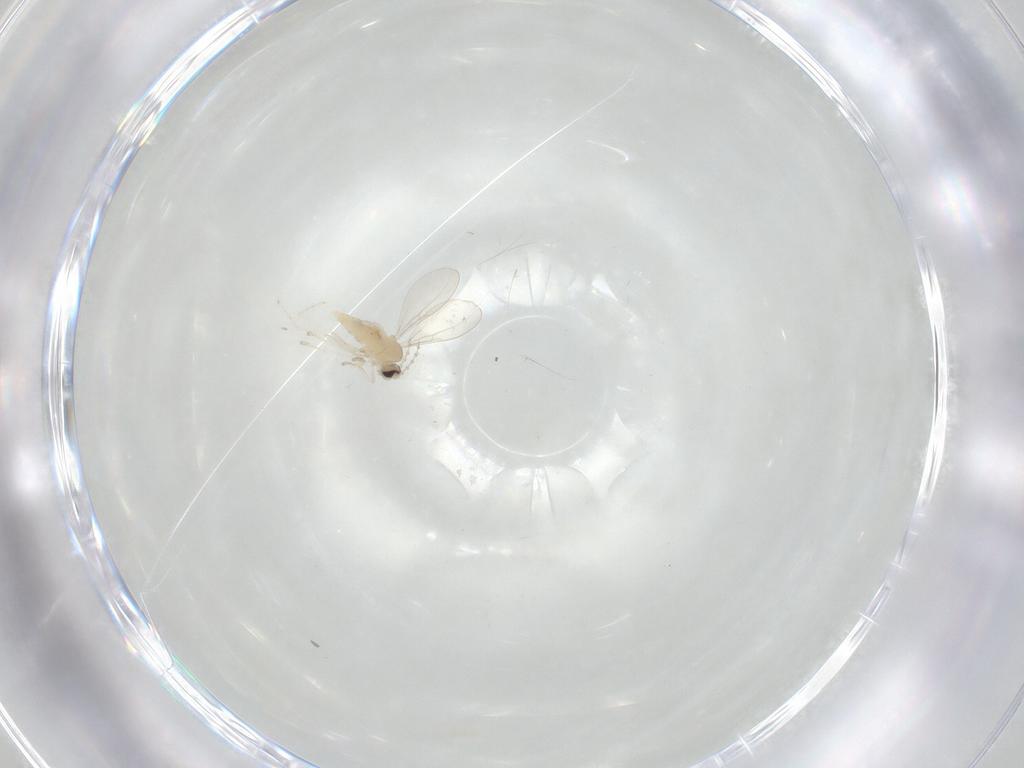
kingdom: Animalia
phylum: Arthropoda
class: Insecta
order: Diptera
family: Cecidomyiidae
